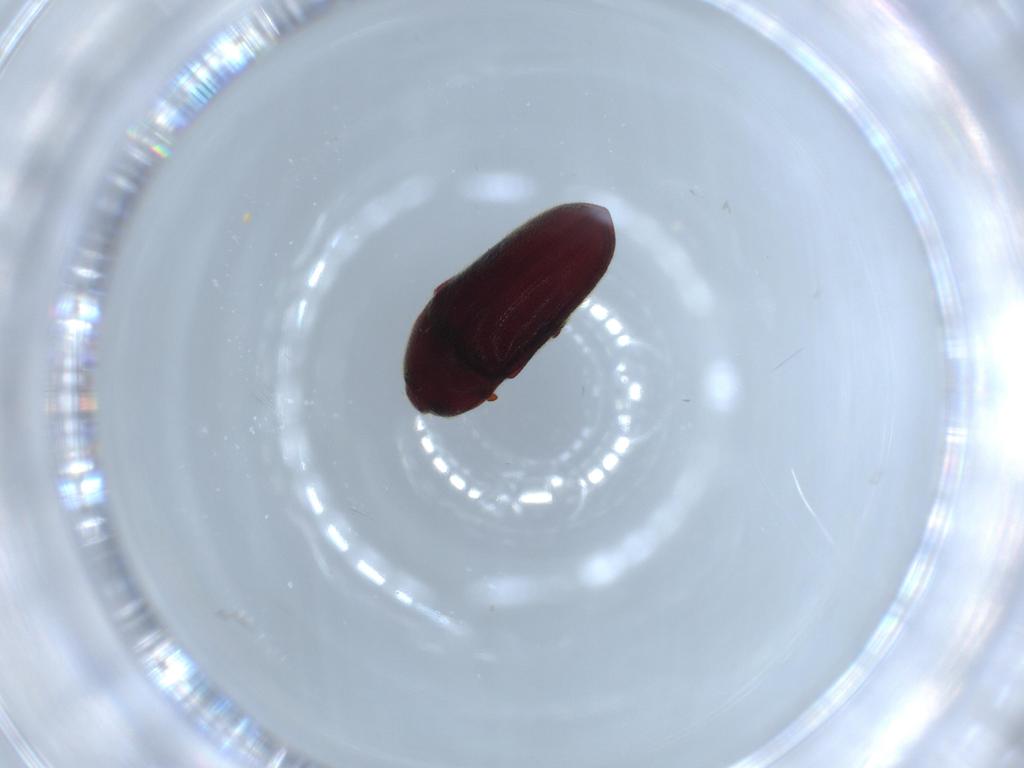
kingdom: Animalia
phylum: Arthropoda
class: Insecta
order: Coleoptera
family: Throscidae
